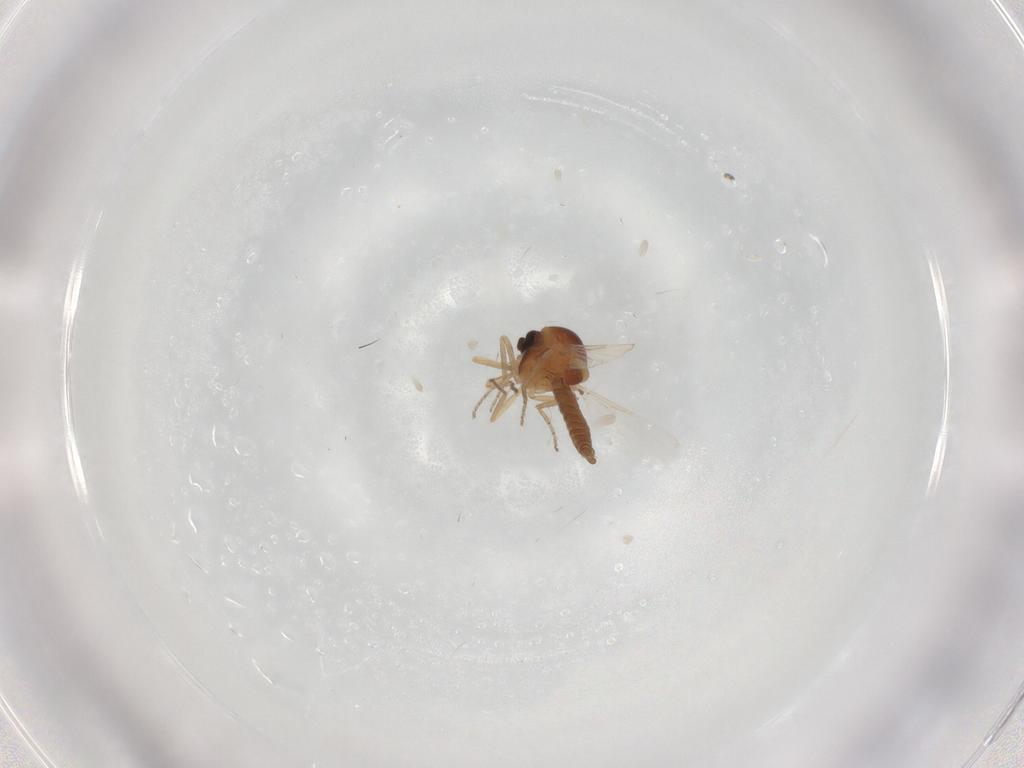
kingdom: Animalia
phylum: Arthropoda
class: Insecta
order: Diptera
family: Ceratopogonidae
